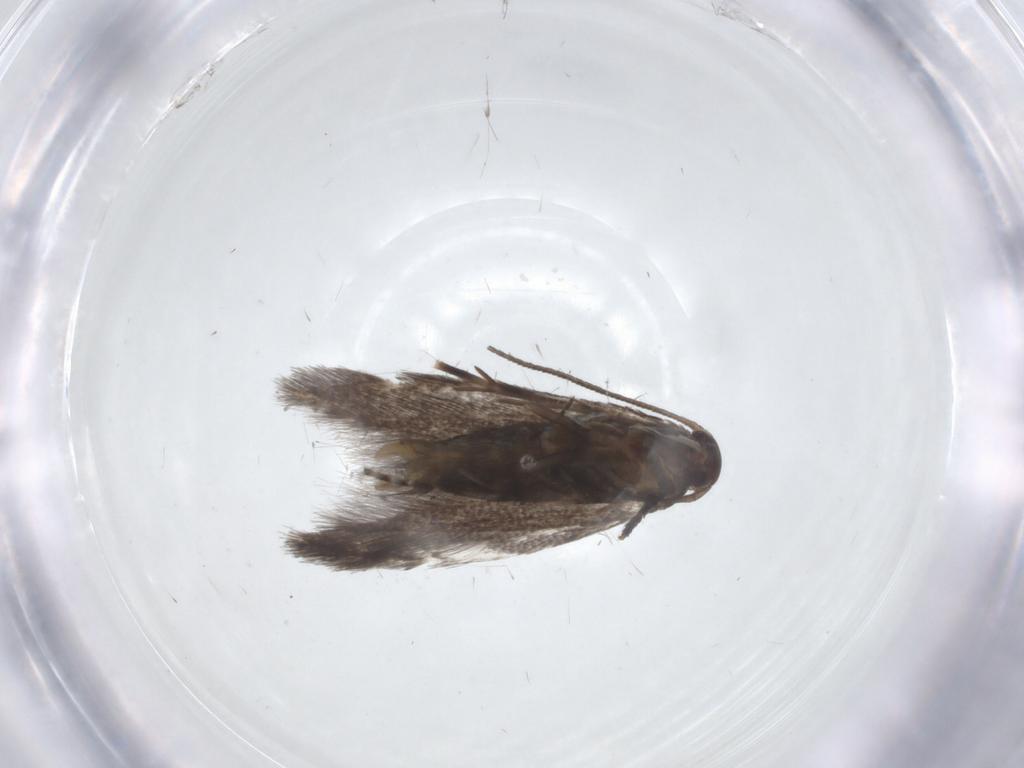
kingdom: Animalia
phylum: Arthropoda
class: Insecta
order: Lepidoptera
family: Elachistidae
